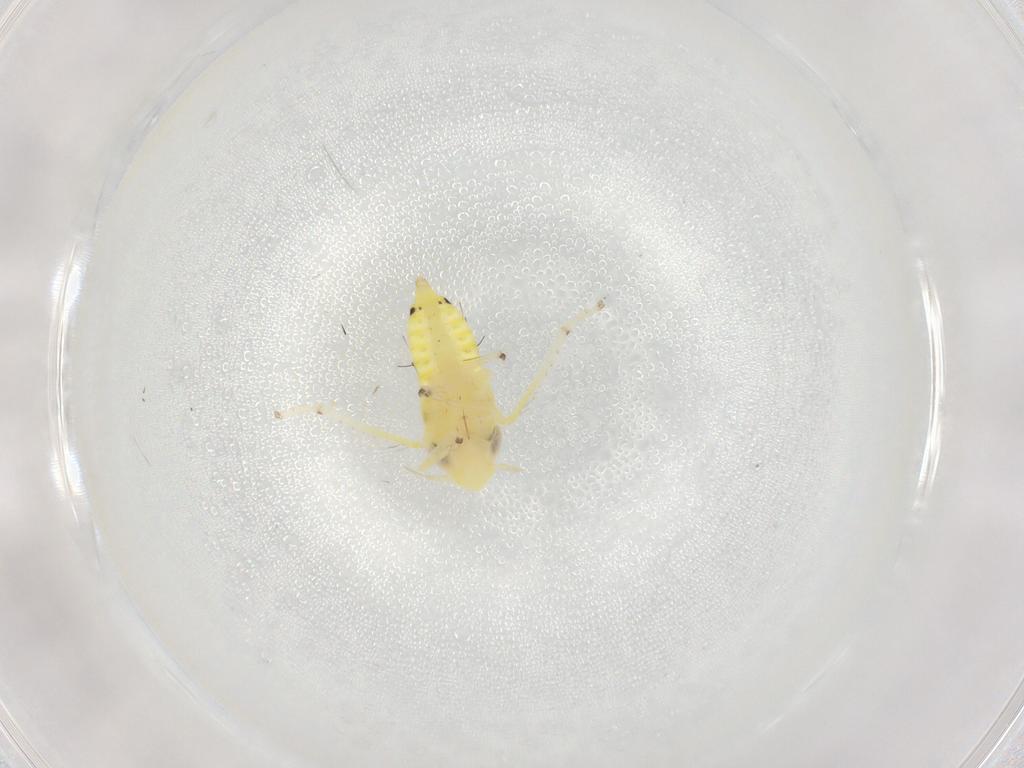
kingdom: Animalia
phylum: Arthropoda
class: Insecta
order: Hemiptera
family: Cicadellidae
